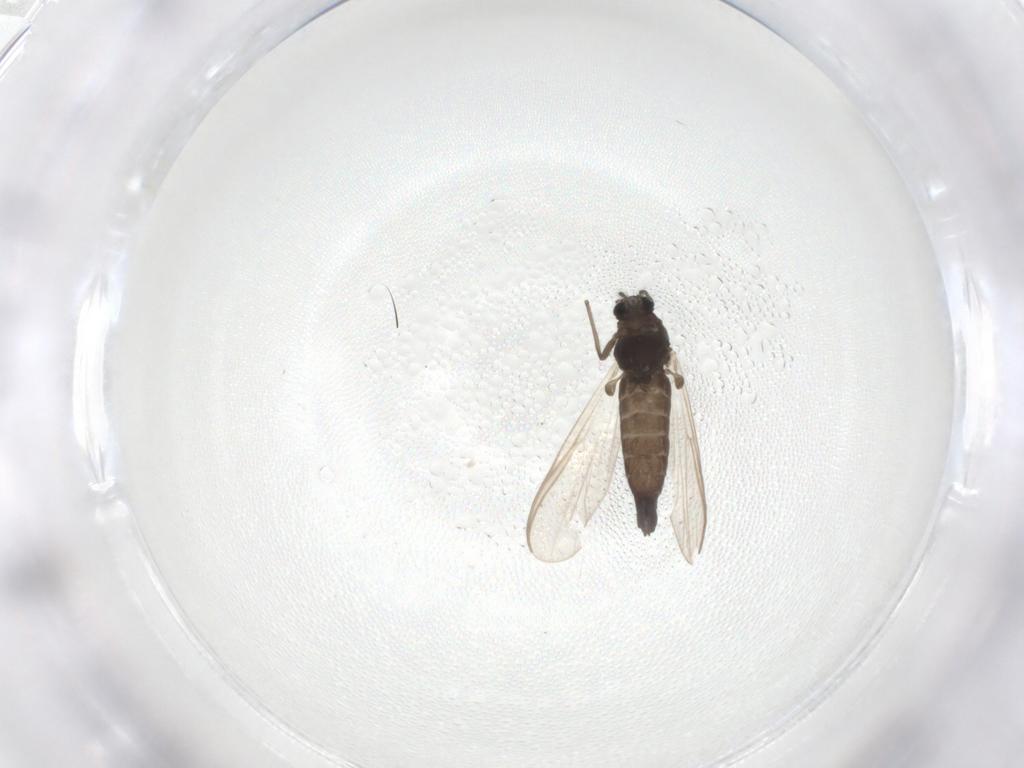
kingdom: Animalia
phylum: Arthropoda
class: Insecta
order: Diptera
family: Chironomidae
